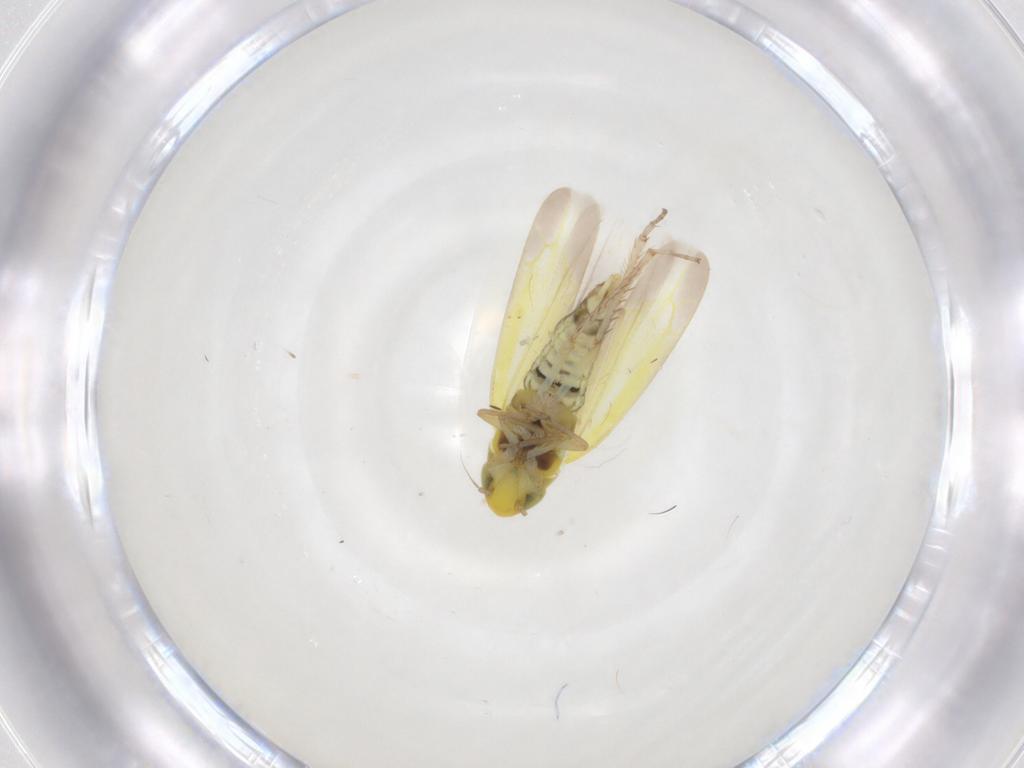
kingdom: Animalia
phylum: Arthropoda
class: Insecta
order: Hemiptera
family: Cicadellidae
